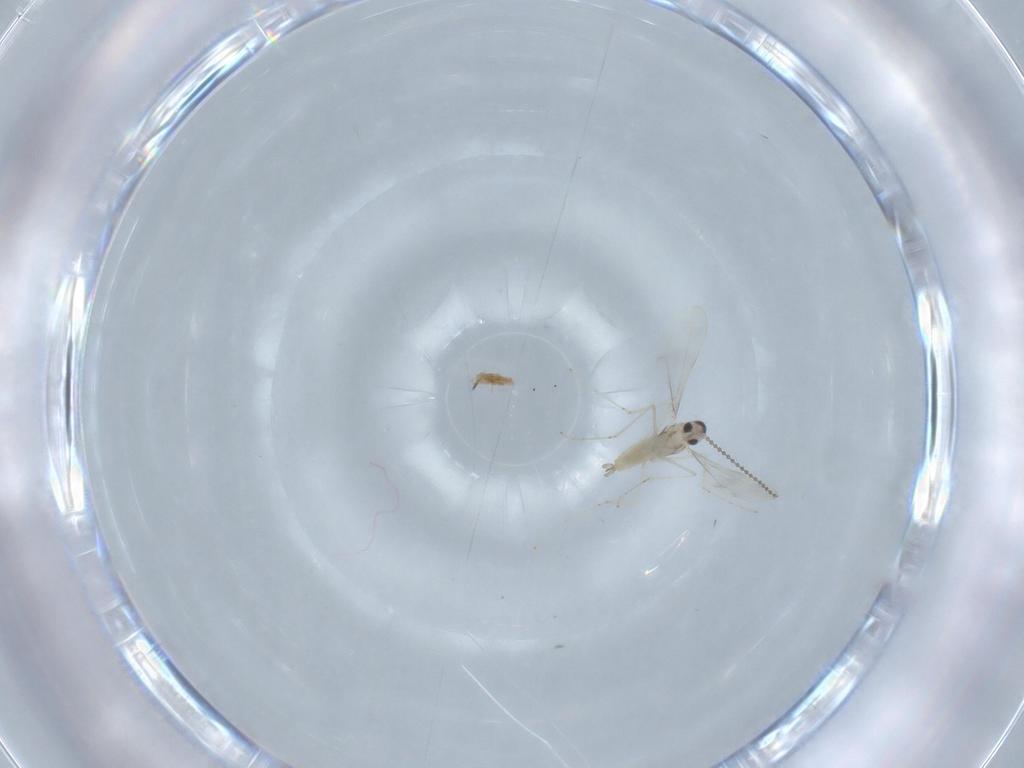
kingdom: Animalia
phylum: Arthropoda
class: Insecta
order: Diptera
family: Cecidomyiidae
